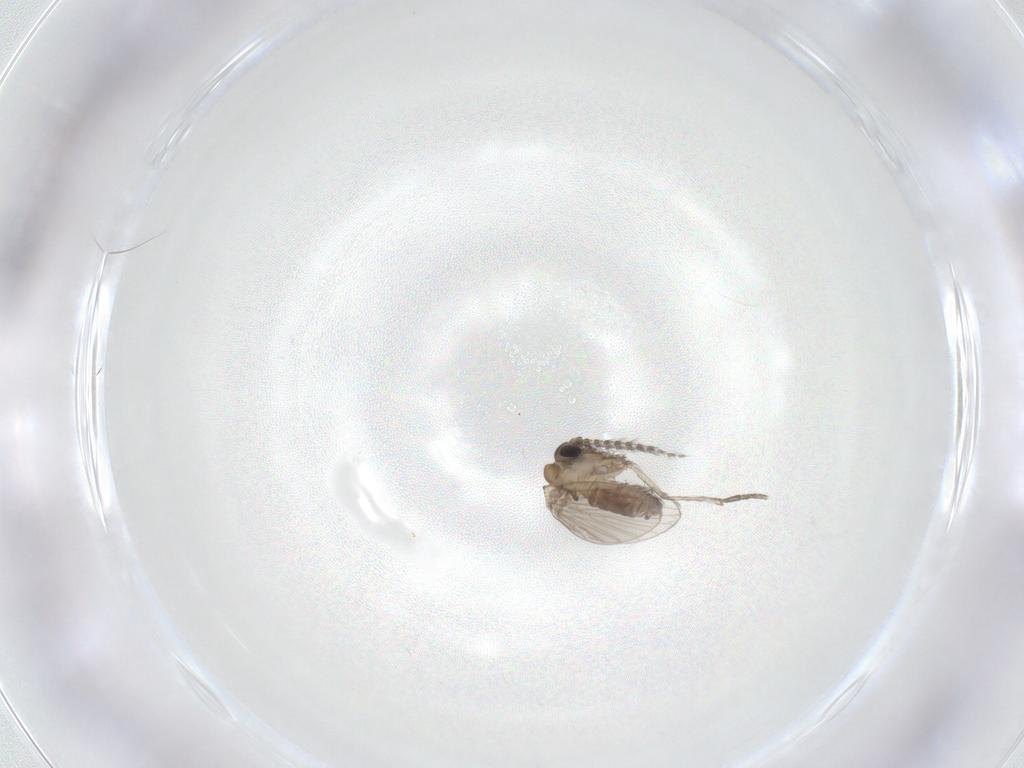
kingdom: Animalia
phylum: Arthropoda
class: Insecta
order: Diptera
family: Psychodidae
